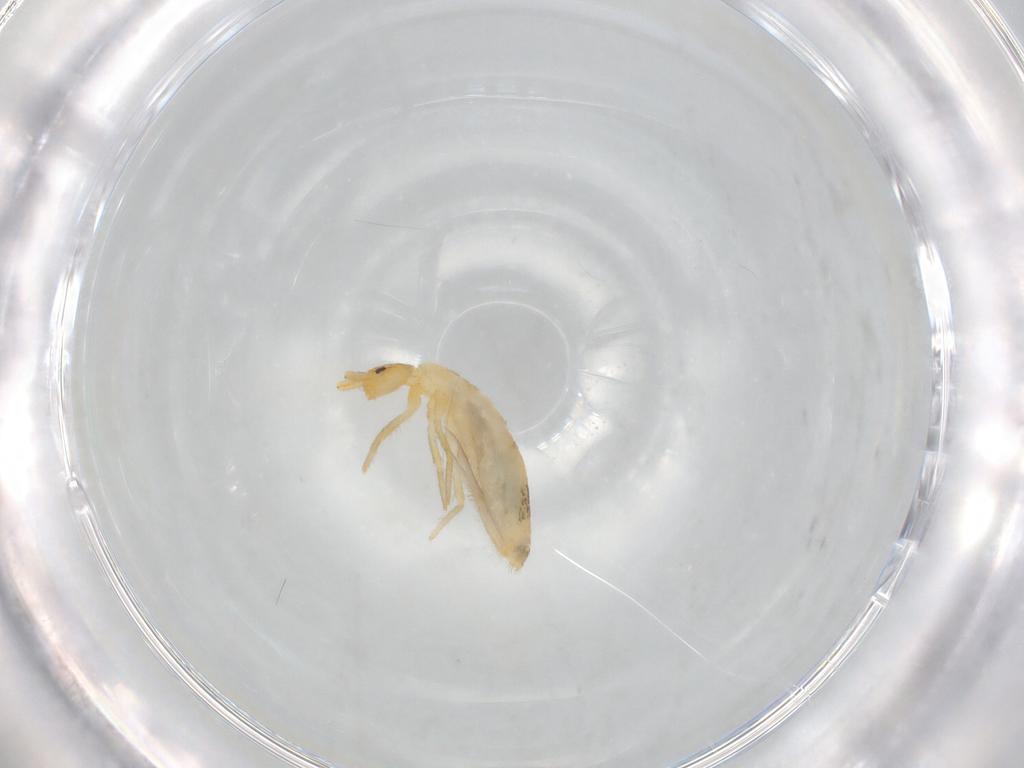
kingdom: Animalia
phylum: Arthropoda
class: Collembola
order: Entomobryomorpha
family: Entomobryidae
